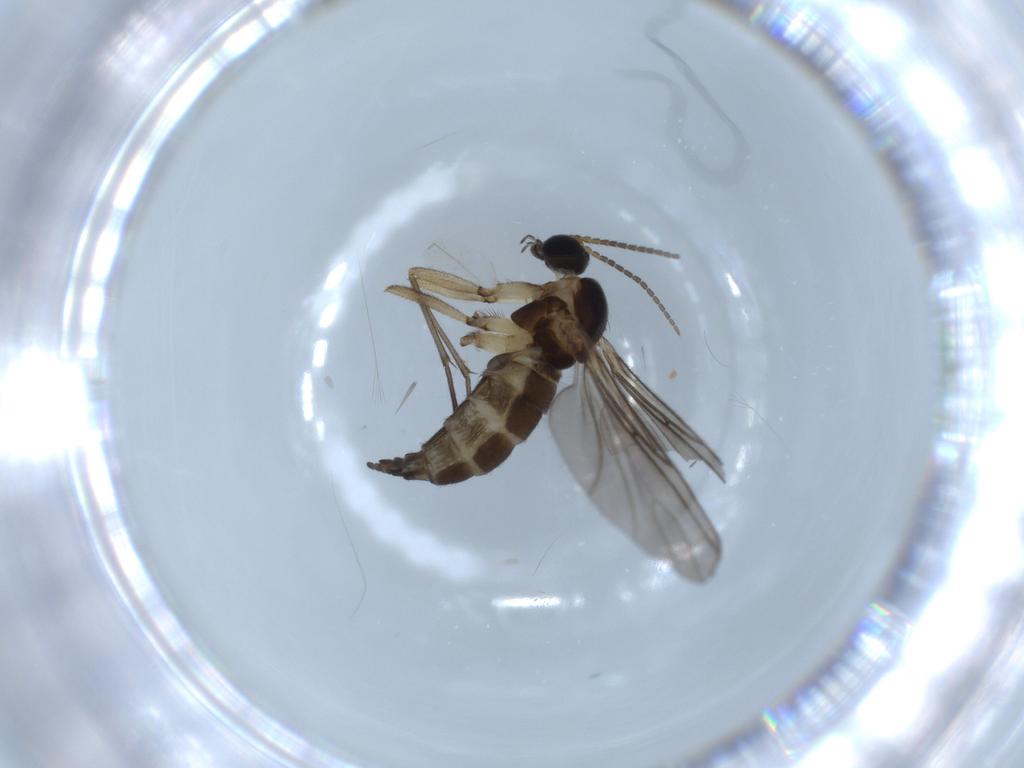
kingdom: Animalia
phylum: Arthropoda
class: Insecta
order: Diptera
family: Sciaridae
